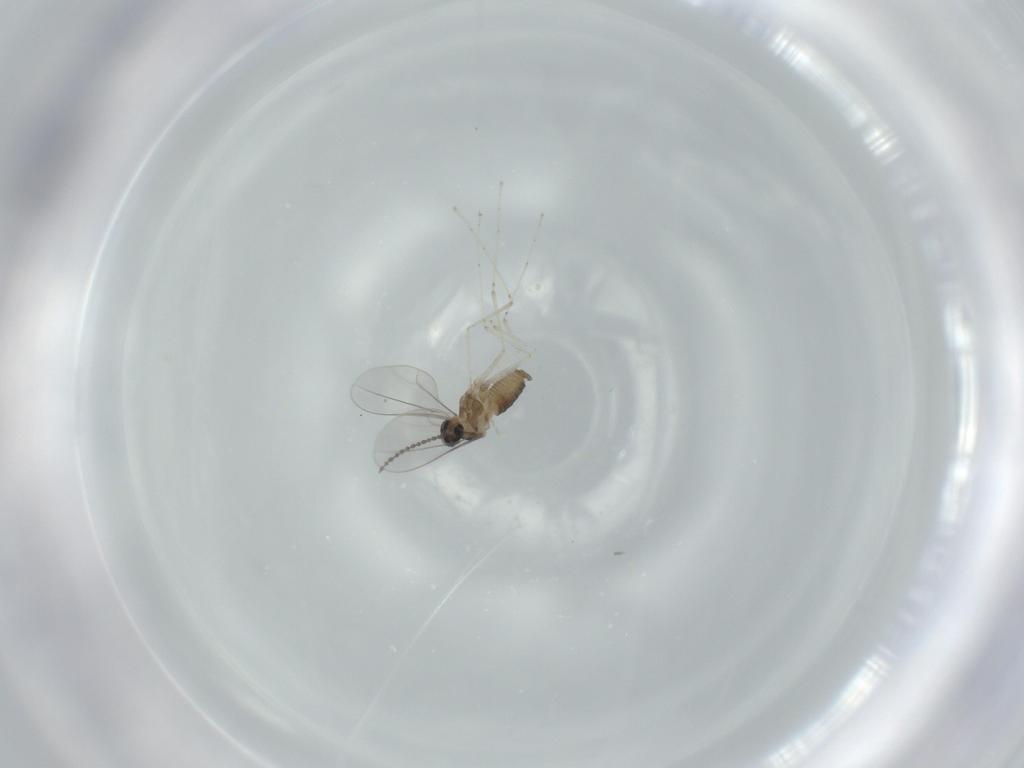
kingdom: Animalia
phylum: Arthropoda
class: Insecta
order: Diptera
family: Cecidomyiidae
